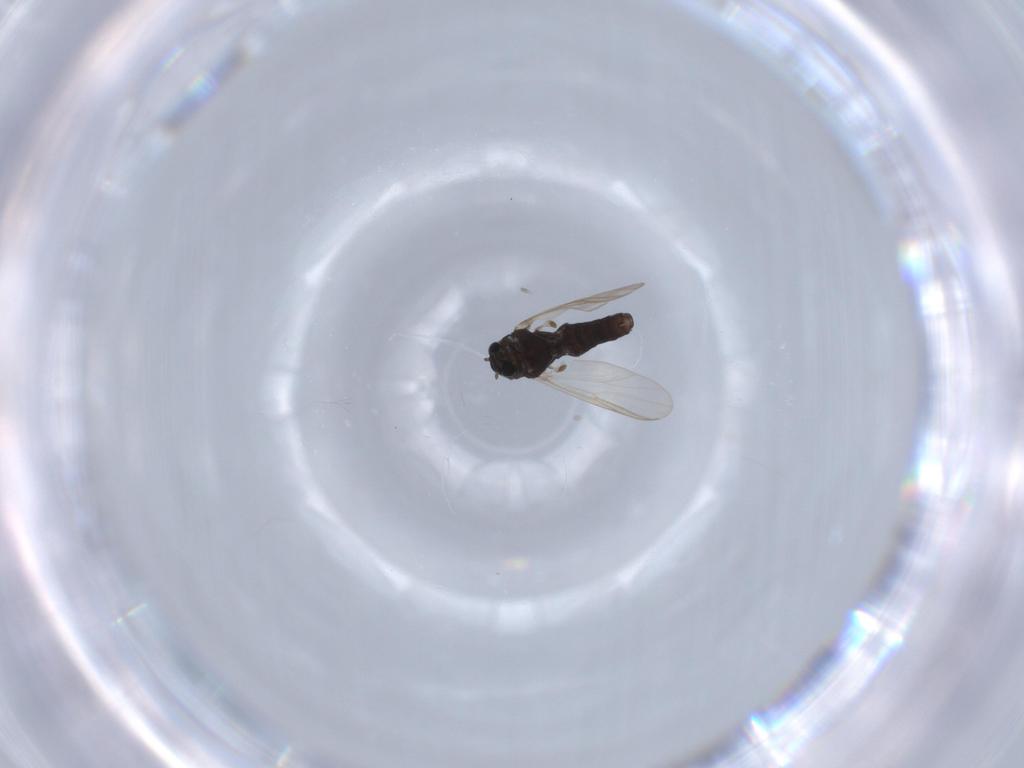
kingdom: Animalia
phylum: Arthropoda
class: Insecta
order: Diptera
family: Chironomidae
